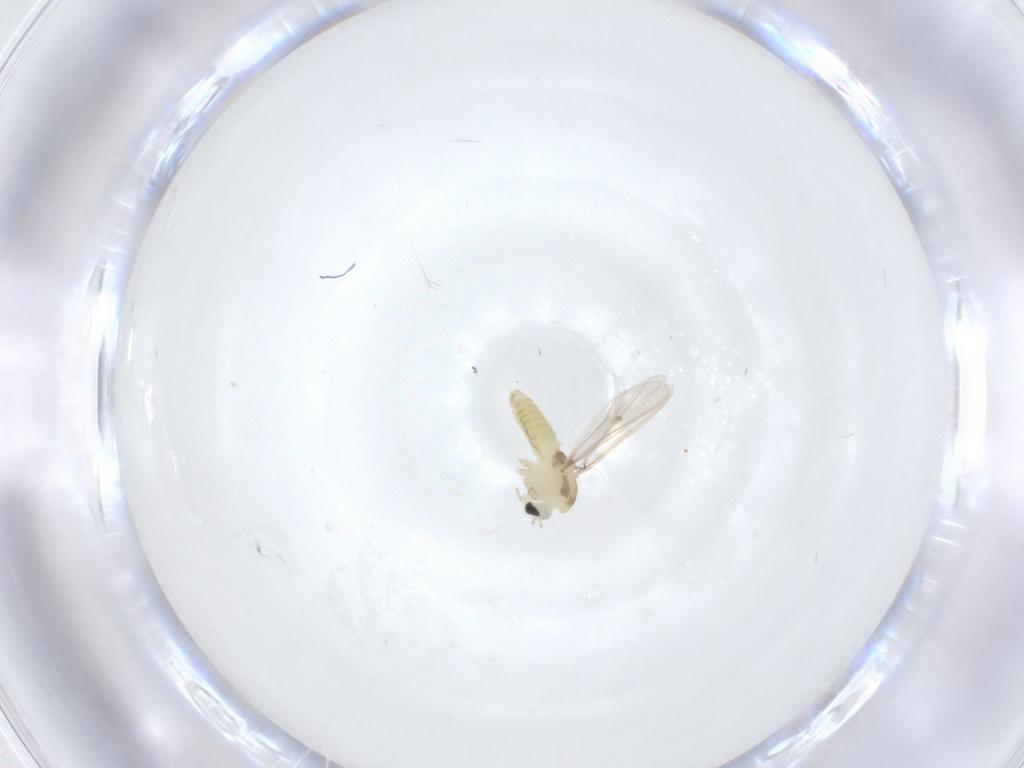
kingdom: Animalia
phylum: Arthropoda
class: Insecta
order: Diptera
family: Chironomidae
